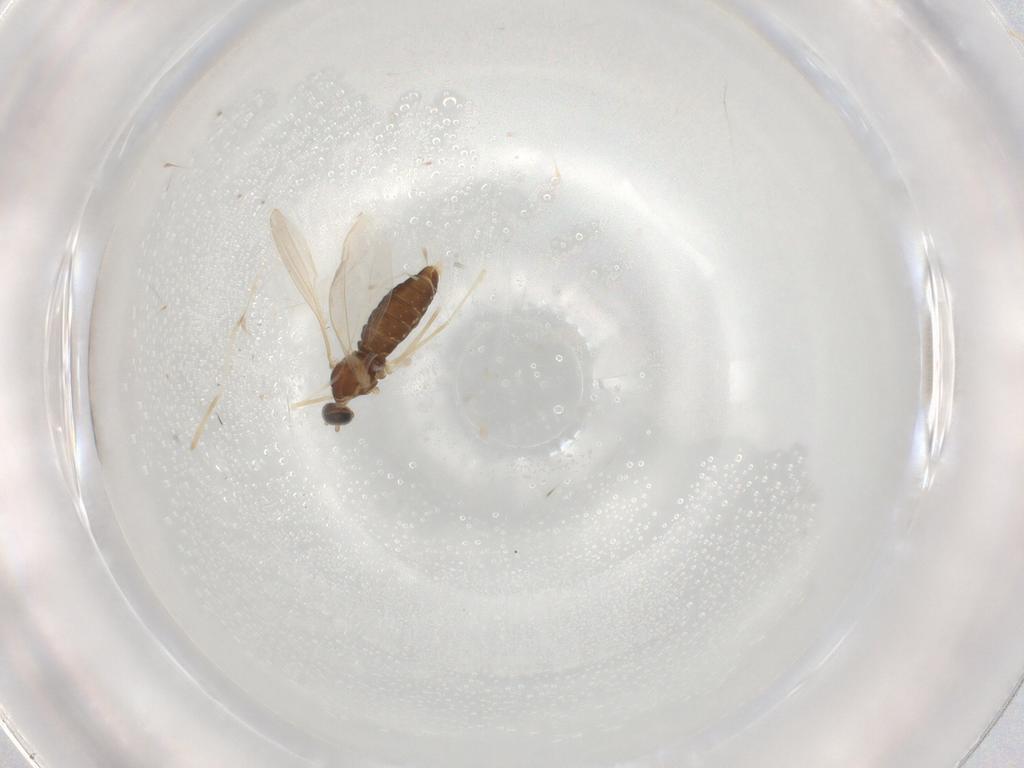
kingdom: Animalia
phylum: Arthropoda
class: Insecta
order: Diptera
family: Cecidomyiidae
